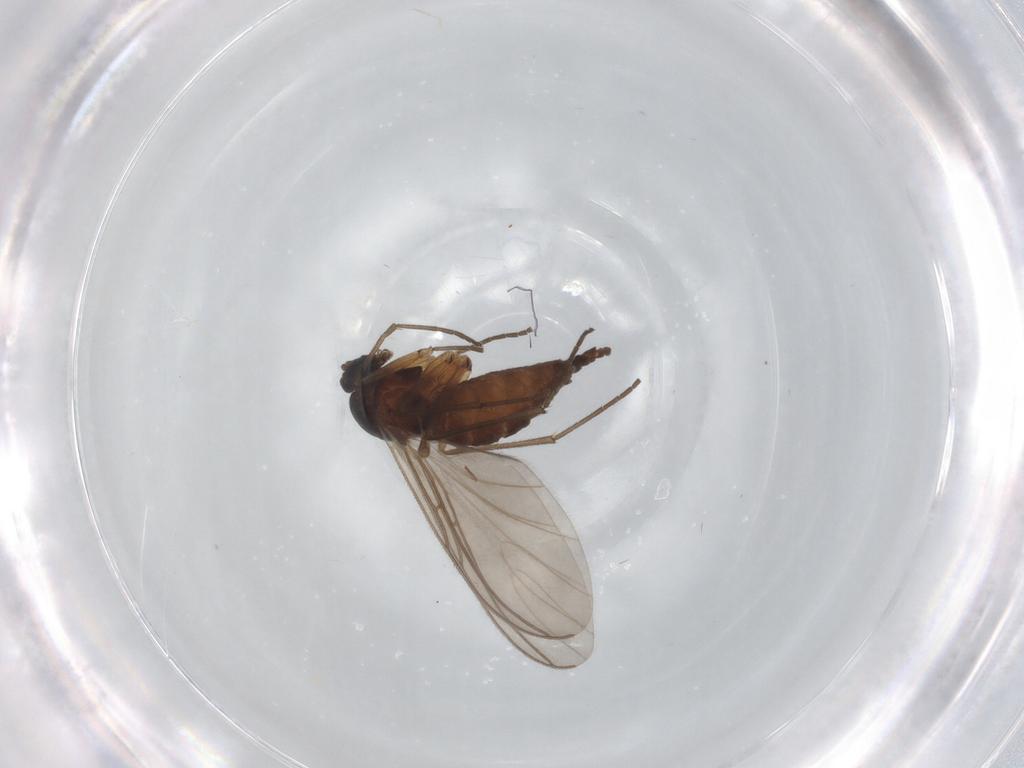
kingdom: Animalia
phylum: Arthropoda
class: Insecta
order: Diptera
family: Sciaridae
